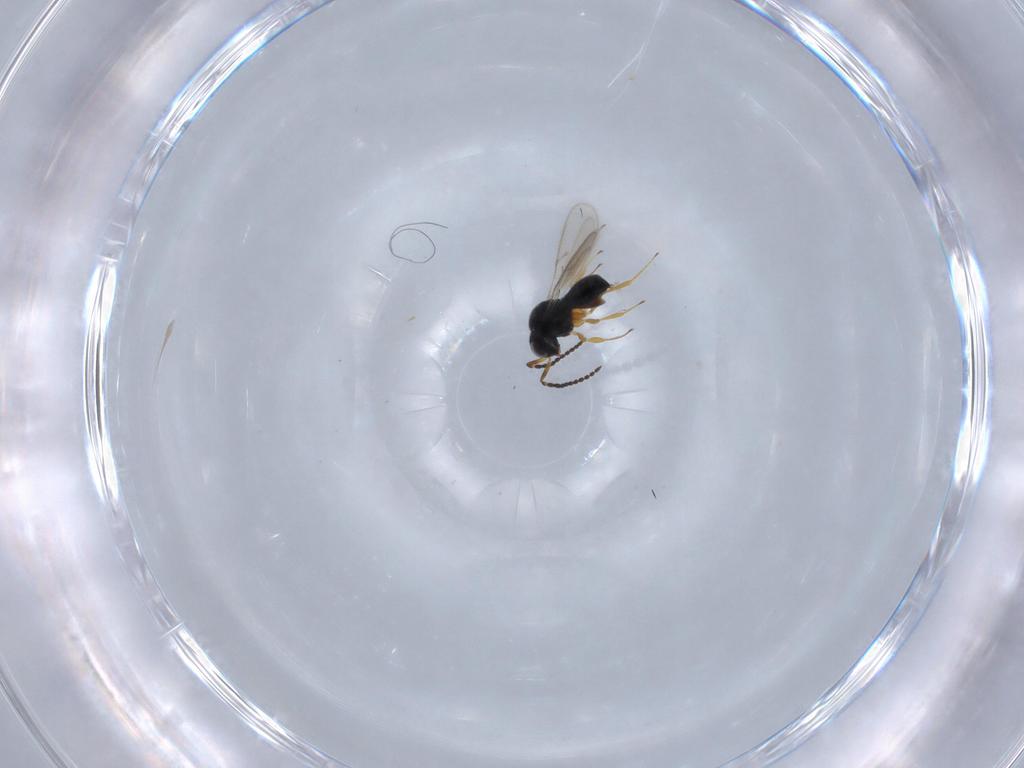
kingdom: Animalia
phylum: Arthropoda
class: Insecta
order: Hymenoptera
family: Scelionidae
